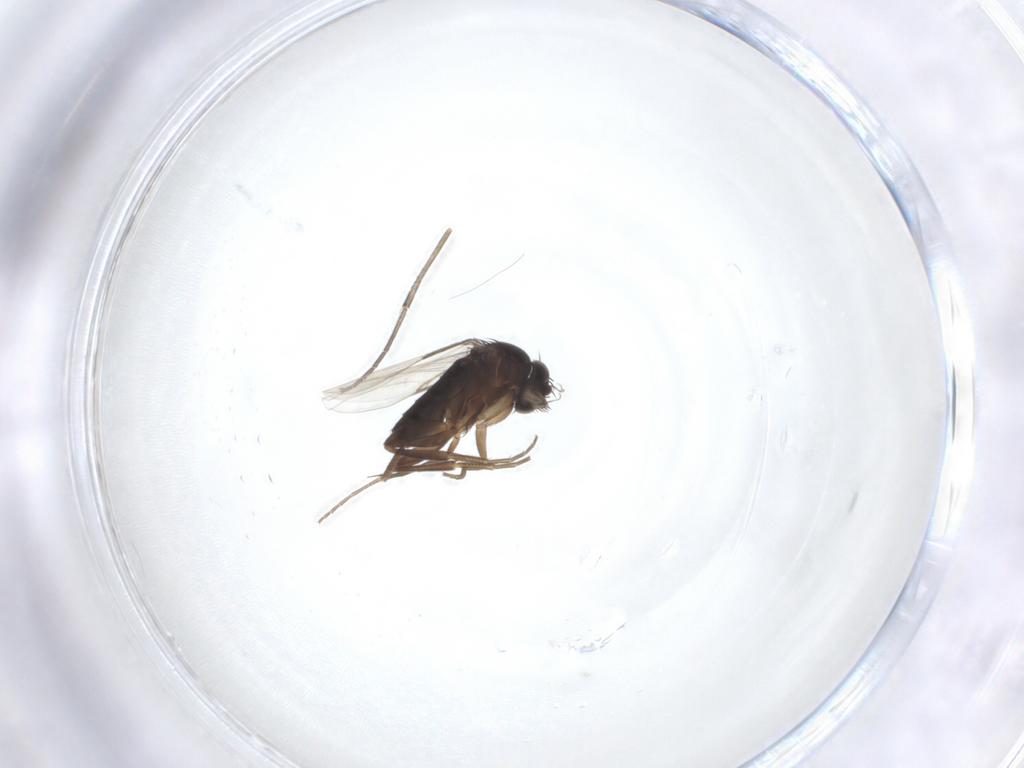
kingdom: Animalia
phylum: Arthropoda
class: Insecta
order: Diptera
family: Phoridae
